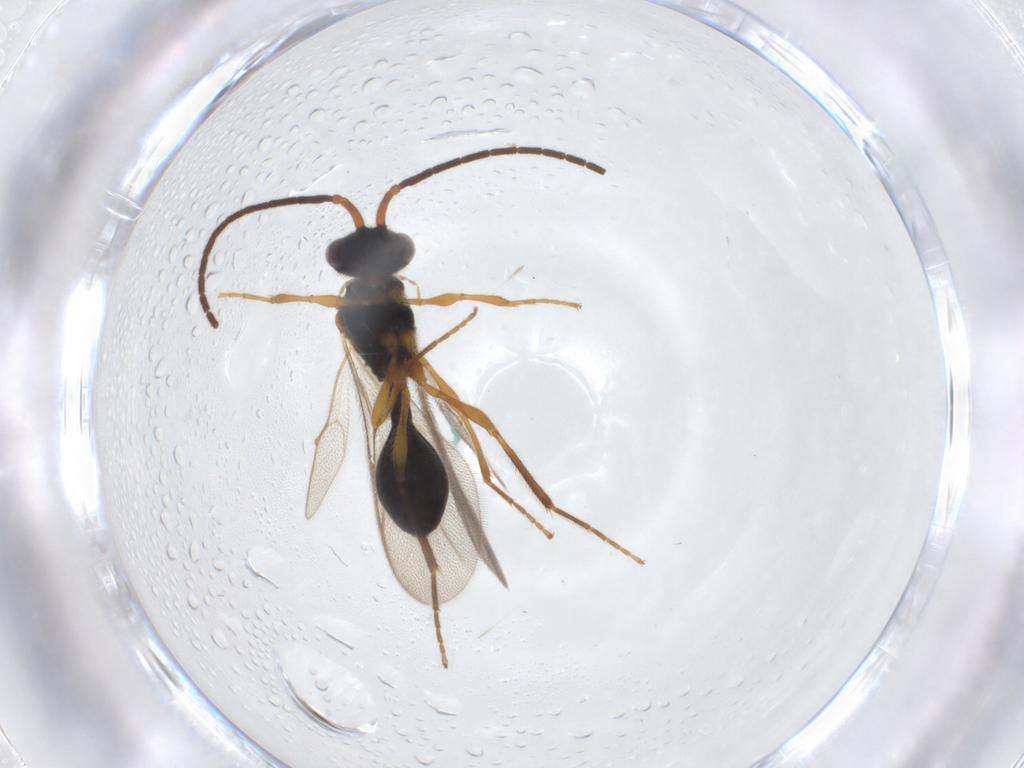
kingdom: Animalia
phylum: Arthropoda
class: Insecta
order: Hymenoptera
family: Diapriidae
